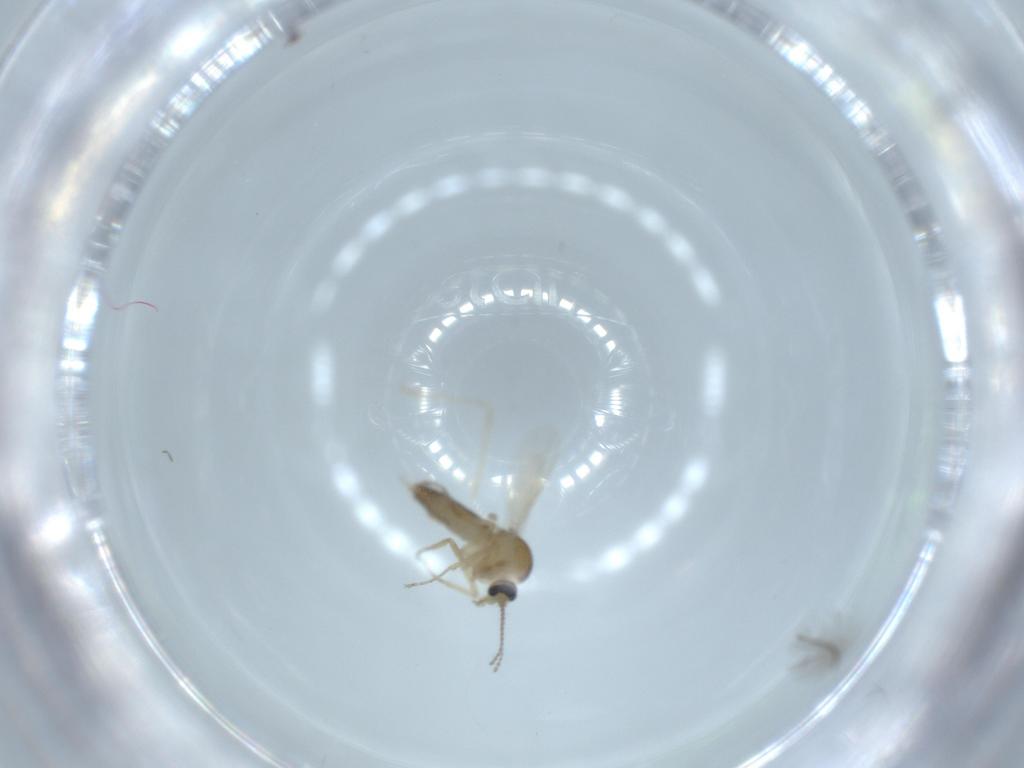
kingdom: Animalia
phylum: Arthropoda
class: Insecta
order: Diptera
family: Ceratopogonidae
